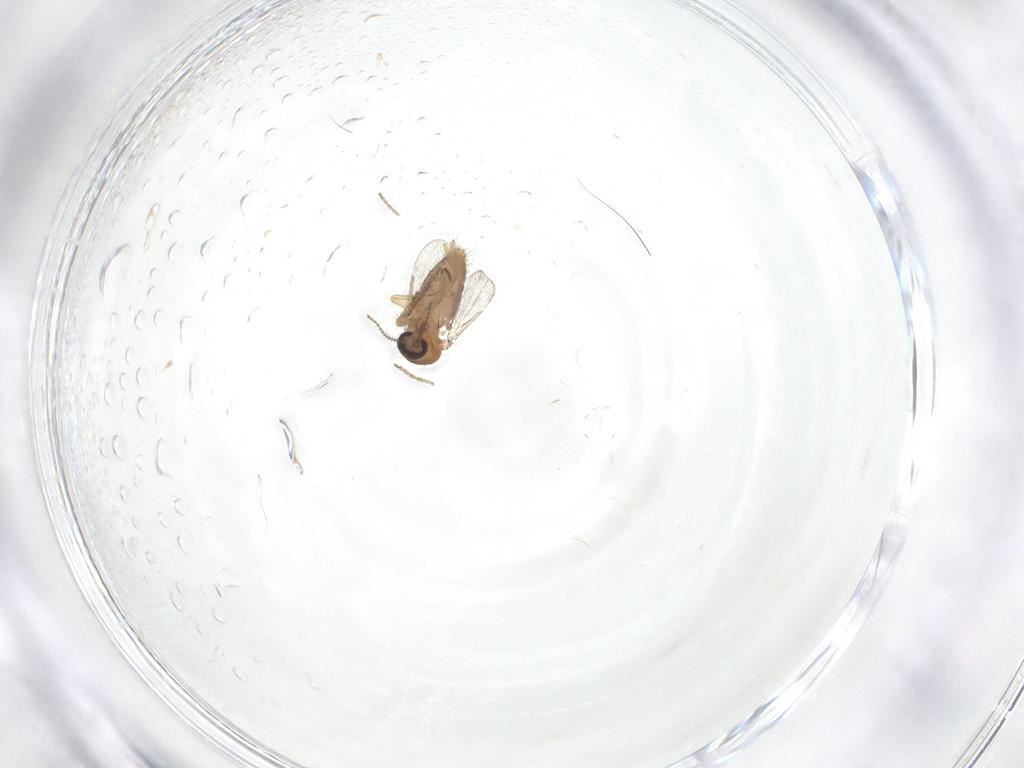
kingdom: Animalia
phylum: Arthropoda
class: Insecta
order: Diptera
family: Ceratopogonidae
